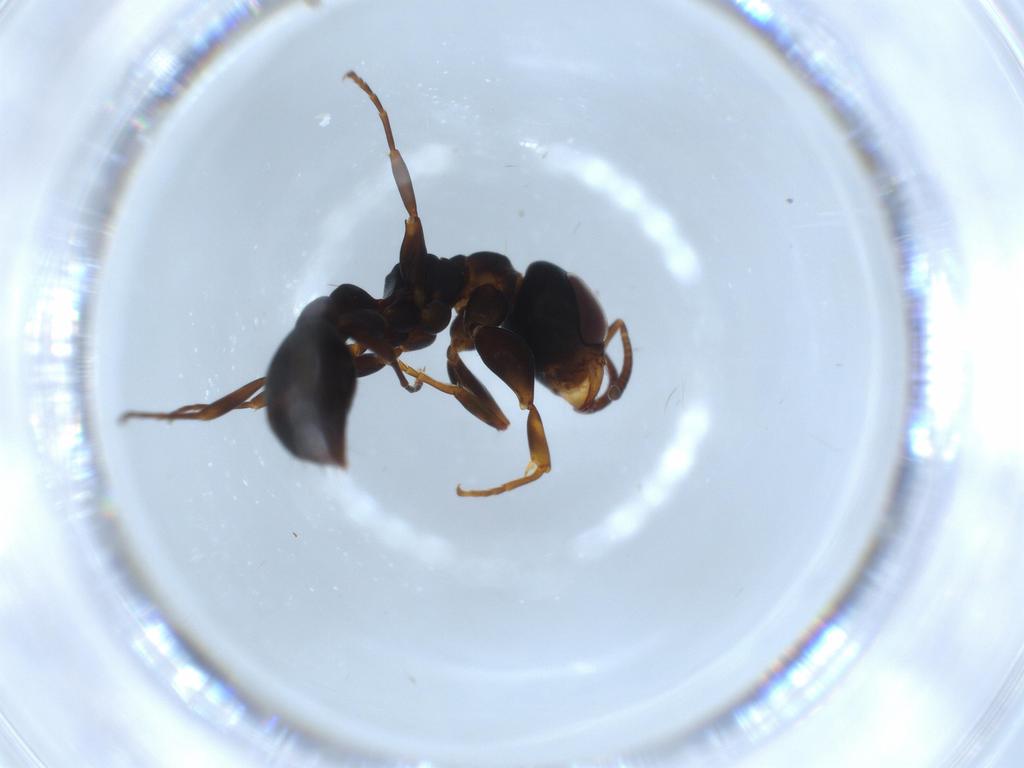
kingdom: Animalia
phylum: Arthropoda
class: Insecta
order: Hymenoptera
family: Formicidae
